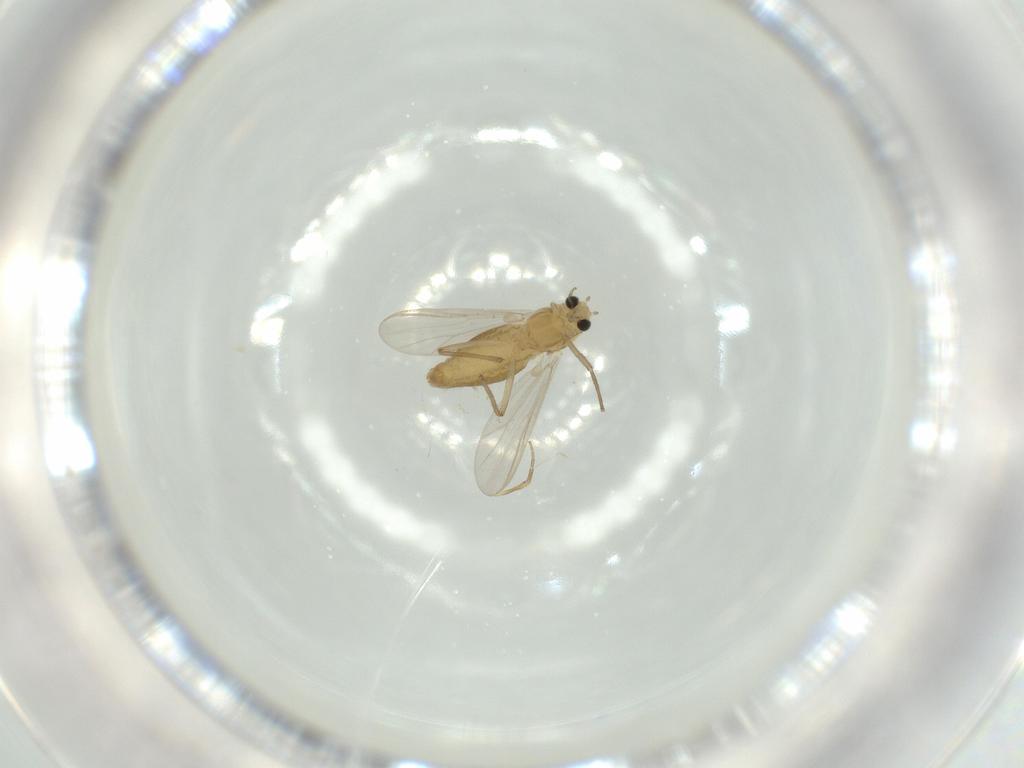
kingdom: Animalia
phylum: Arthropoda
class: Insecta
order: Diptera
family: Chironomidae
